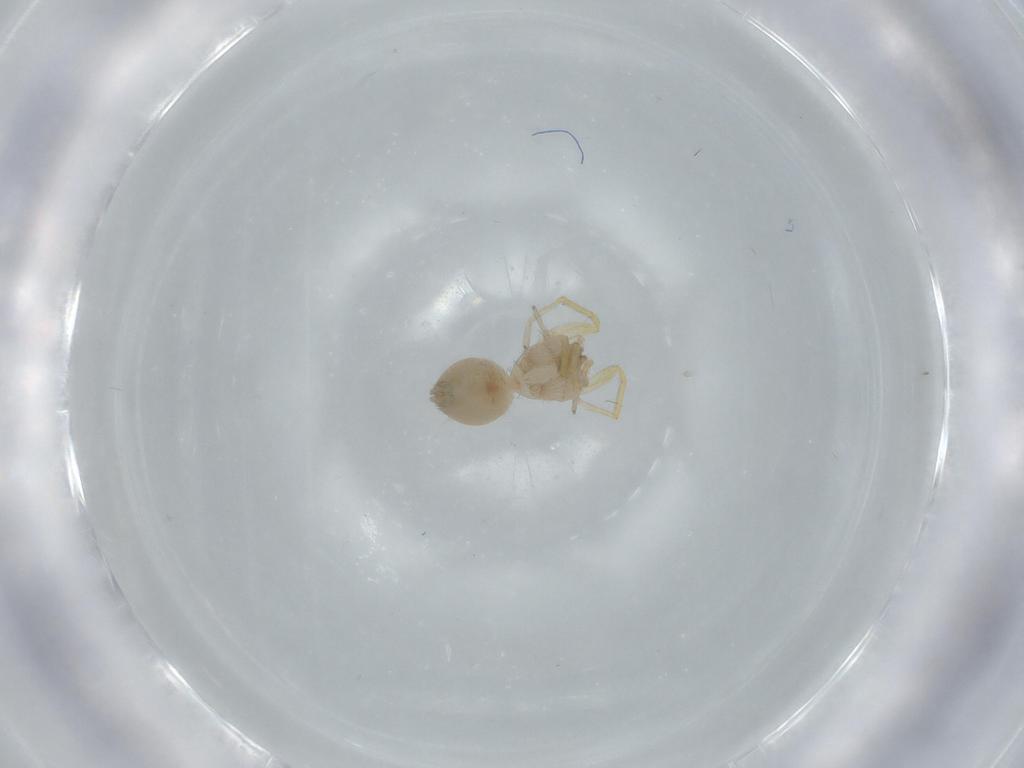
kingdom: Animalia
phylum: Arthropoda
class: Arachnida
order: Araneae
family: Oonopidae
